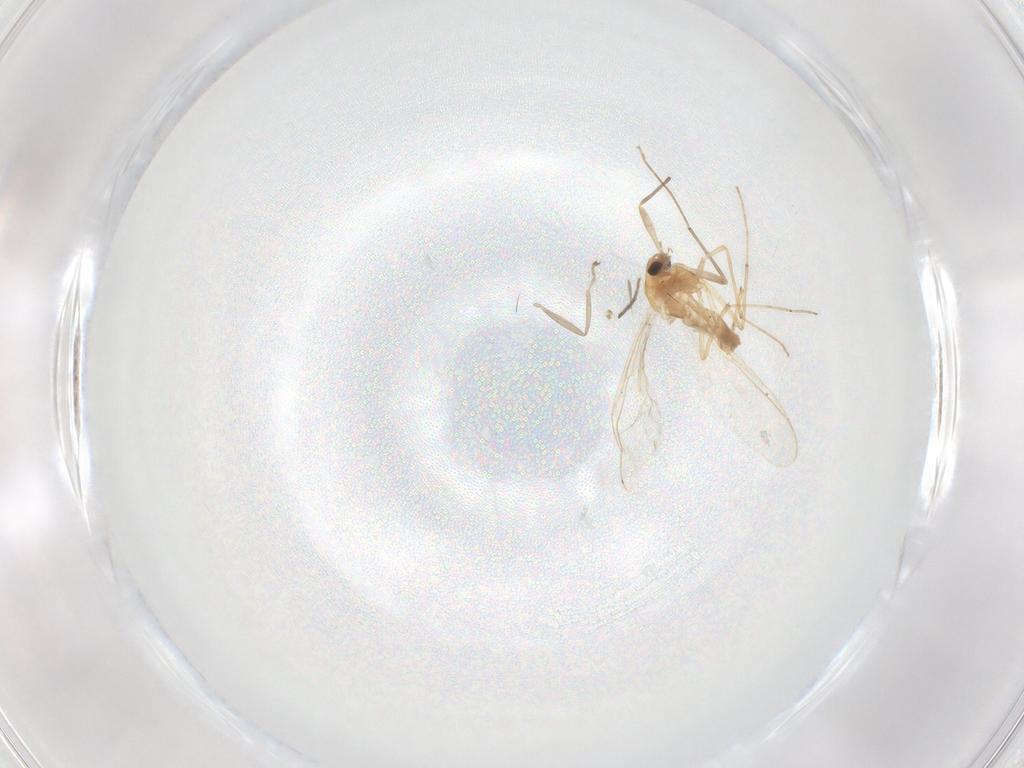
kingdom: Animalia
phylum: Arthropoda
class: Insecta
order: Diptera
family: Chironomidae
